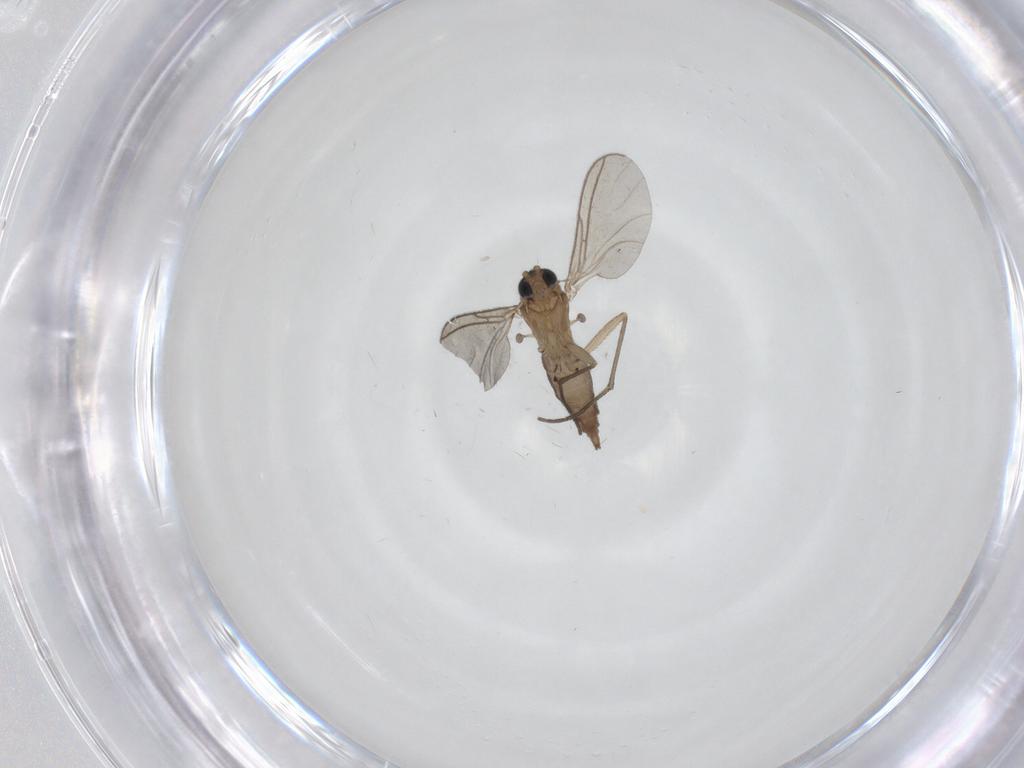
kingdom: Animalia
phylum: Arthropoda
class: Insecta
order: Diptera
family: Sciaridae
